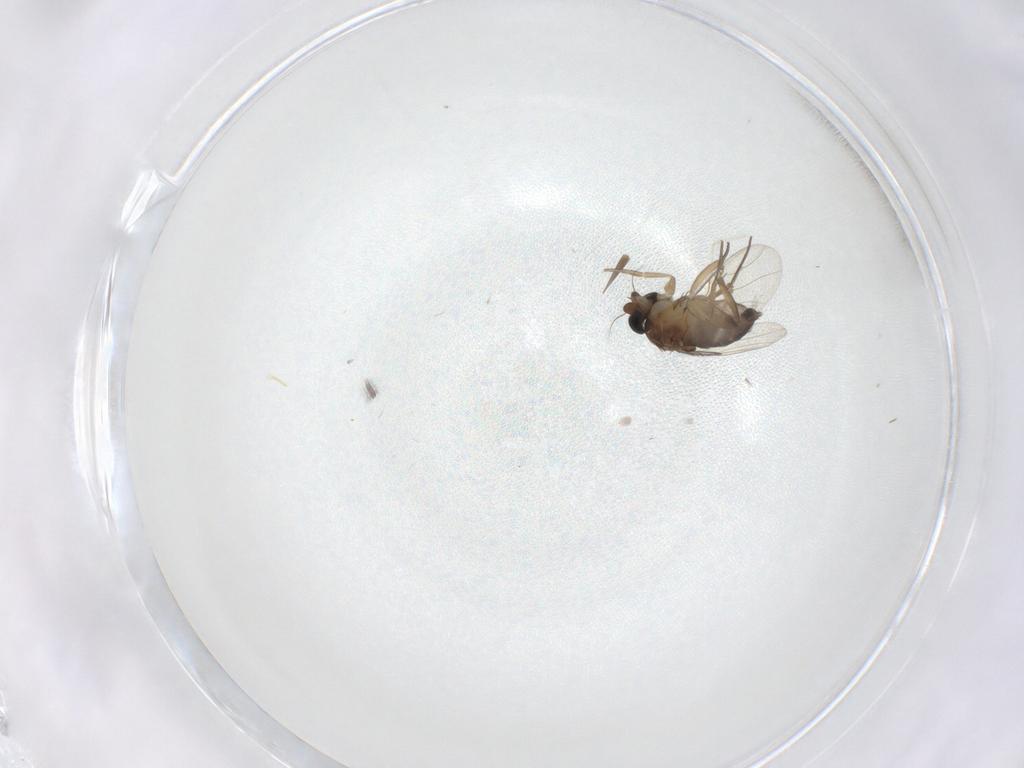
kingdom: Animalia
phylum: Arthropoda
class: Insecta
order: Diptera
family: Phoridae
